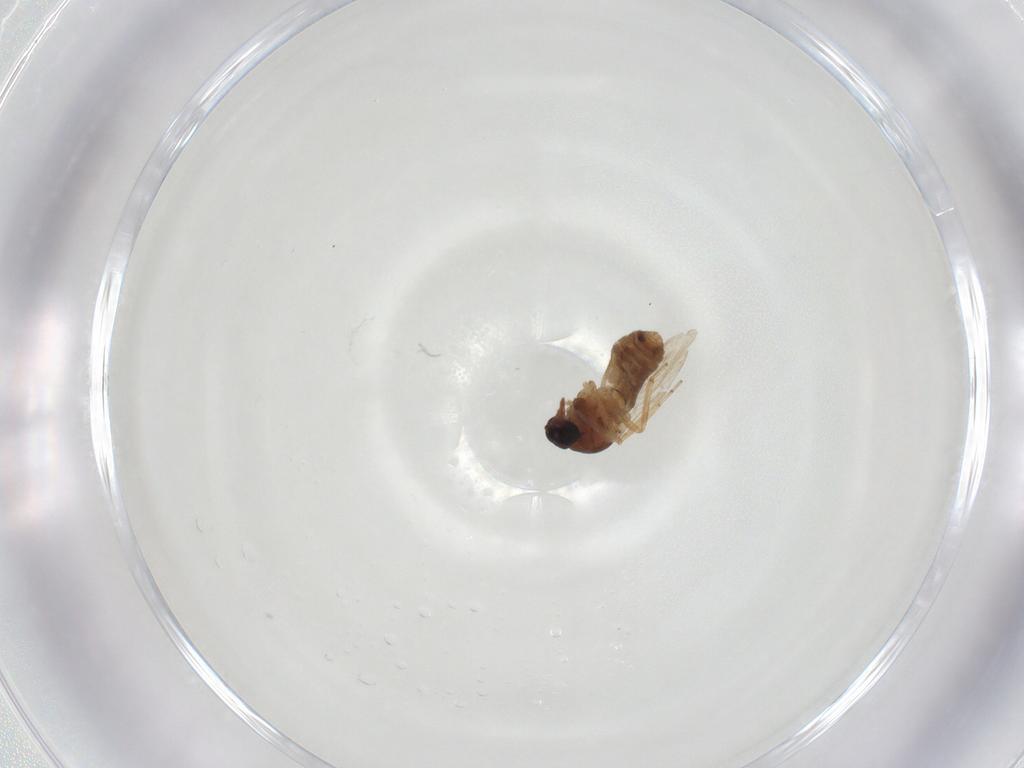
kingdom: Animalia
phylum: Arthropoda
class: Insecta
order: Diptera
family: Ceratopogonidae
